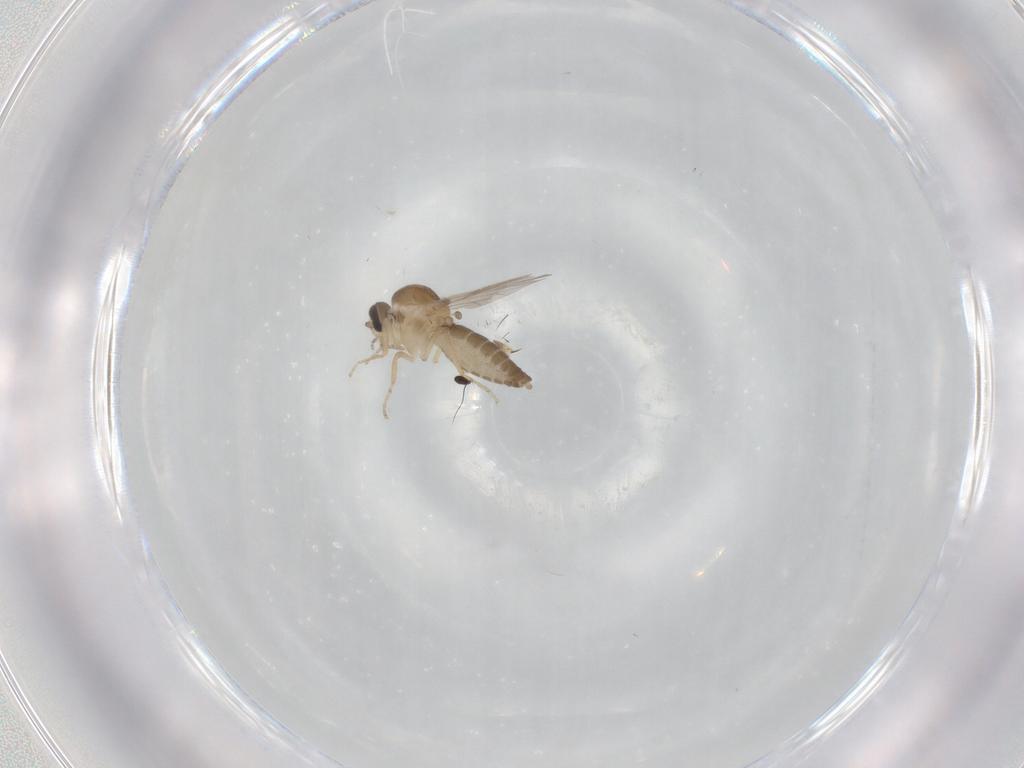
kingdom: Animalia
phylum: Arthropoda
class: Insecta
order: Diptera
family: Ceratopogonidae
